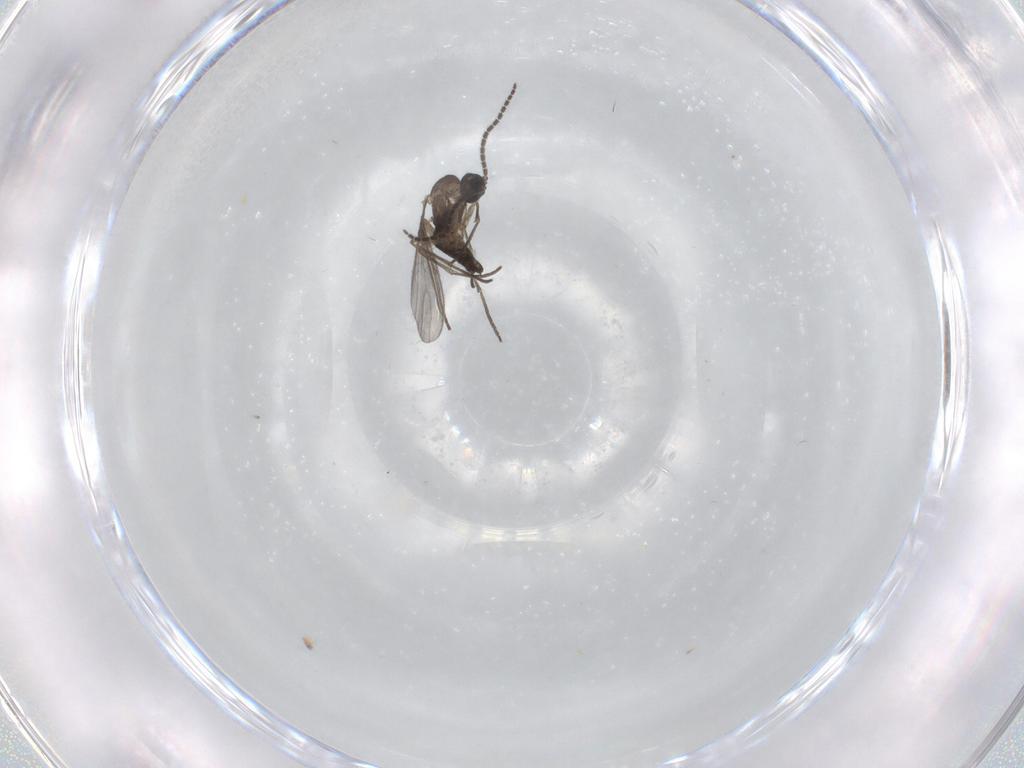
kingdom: Animalia
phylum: Arthropoda
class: Insecta
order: Diptera
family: Sciaridae
